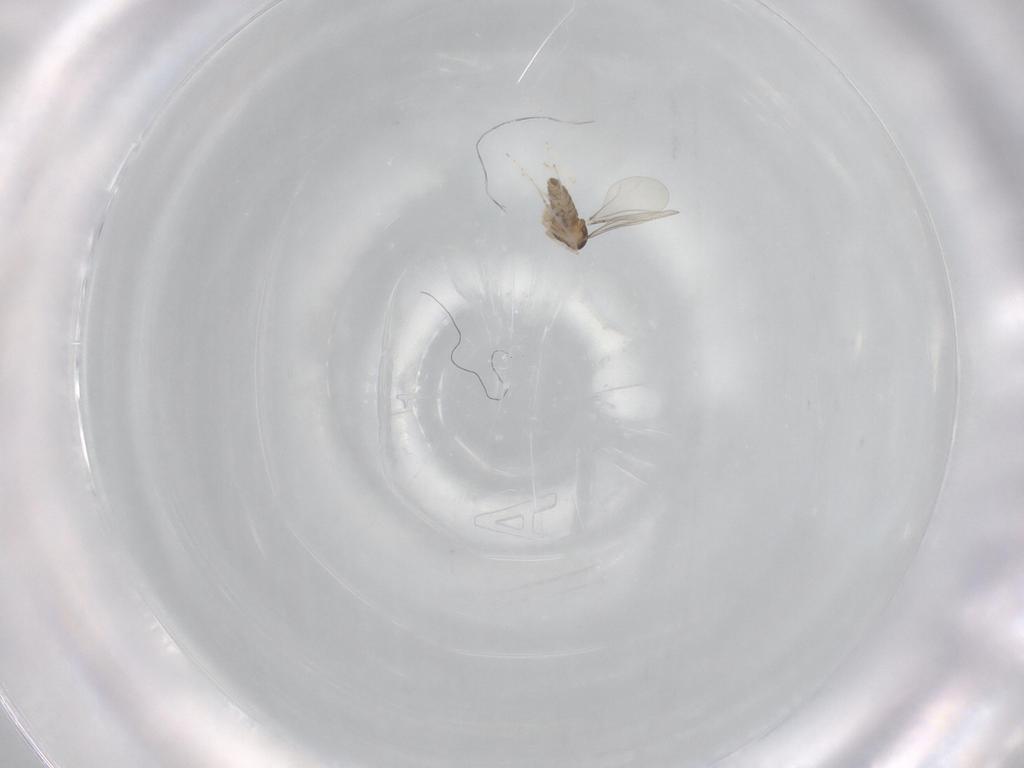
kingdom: Animalia
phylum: Arthropoda
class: Insecta
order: Diptera
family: Cecidomyiidae
